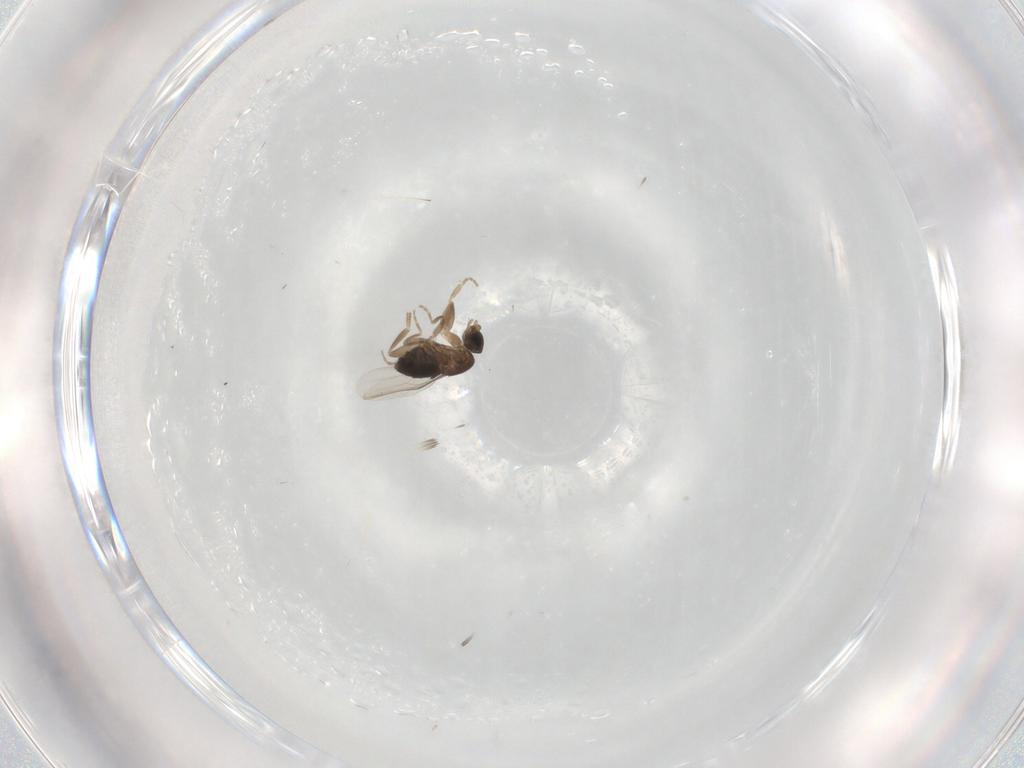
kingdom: Animalia
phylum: Arthropoda
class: Insecta
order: Diptera
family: Phoridae
